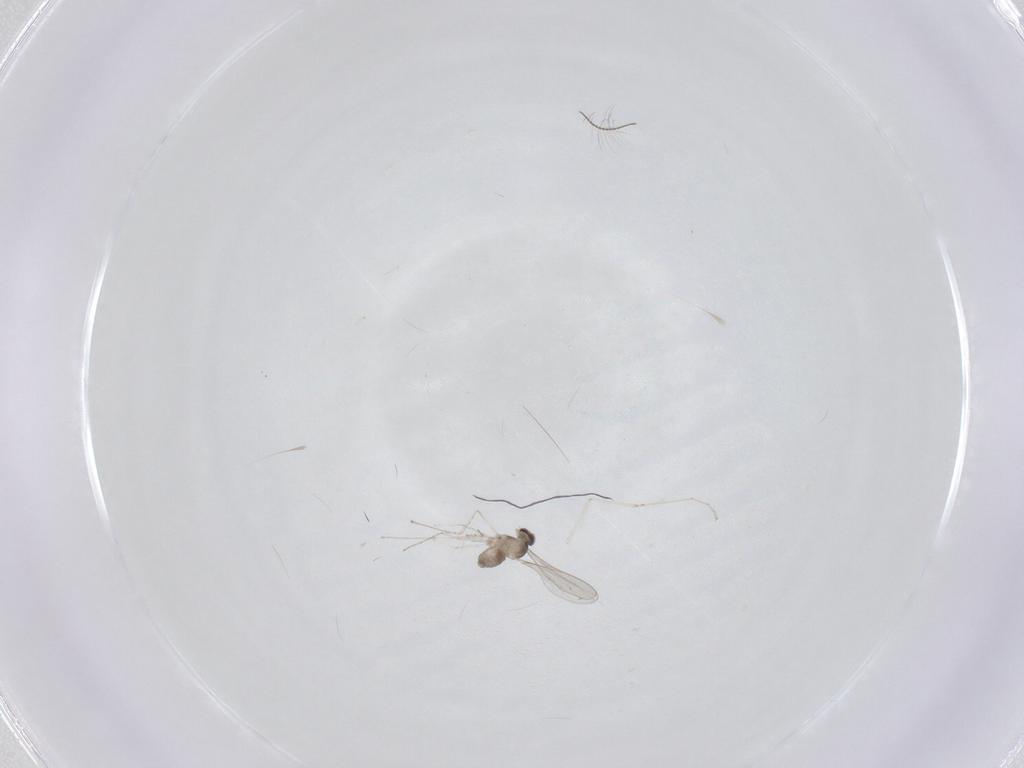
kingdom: Animalia
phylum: Arthropoda
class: Insecta
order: Diptera
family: Cecidomyiidae
